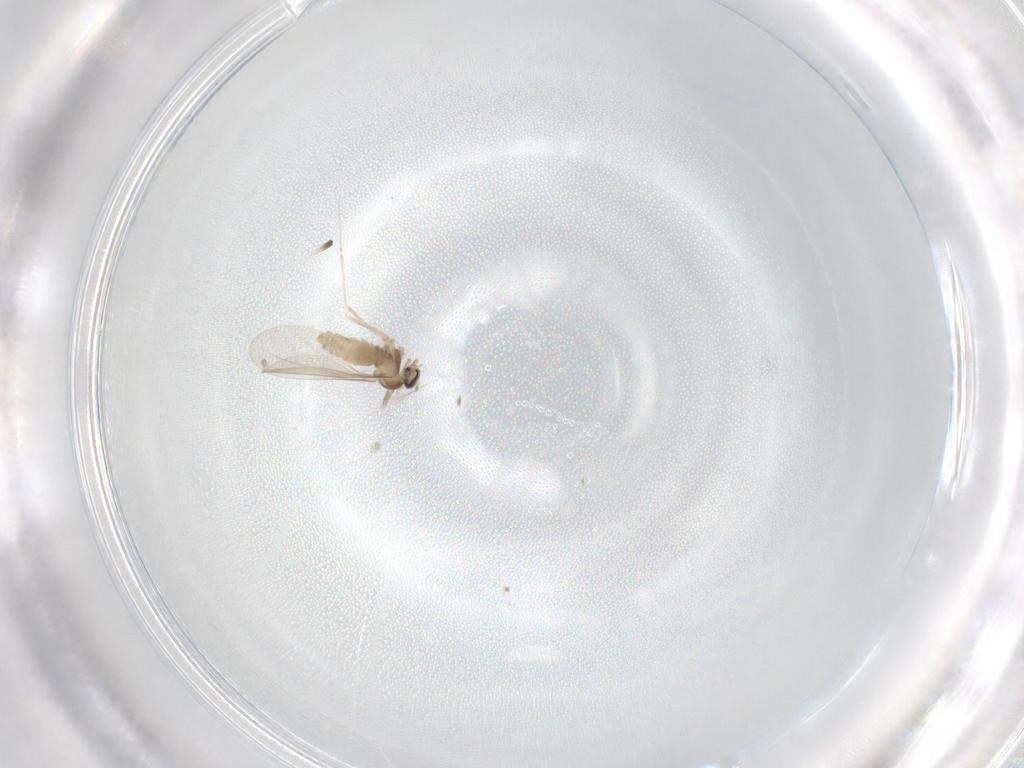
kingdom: Animalia
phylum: Arthropoda
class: Insecta
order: Diptera
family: Cecidomyiidae
